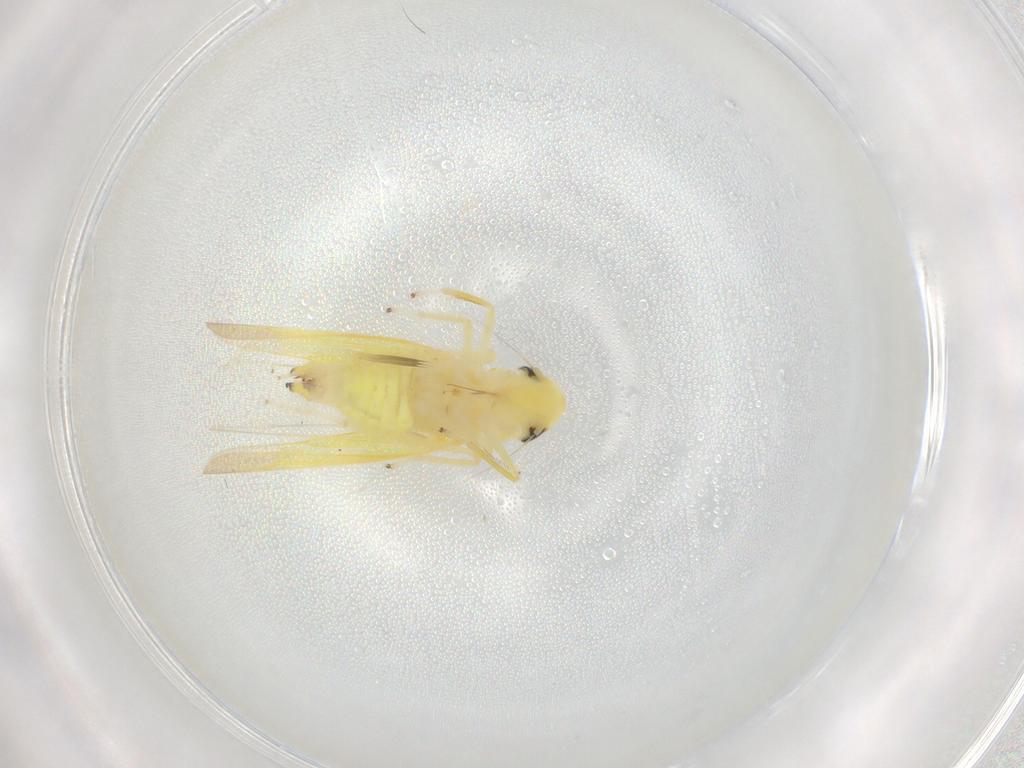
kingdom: Animalia
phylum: Arthropoda
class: Insecta
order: Hemiptera
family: Cicadellidae
